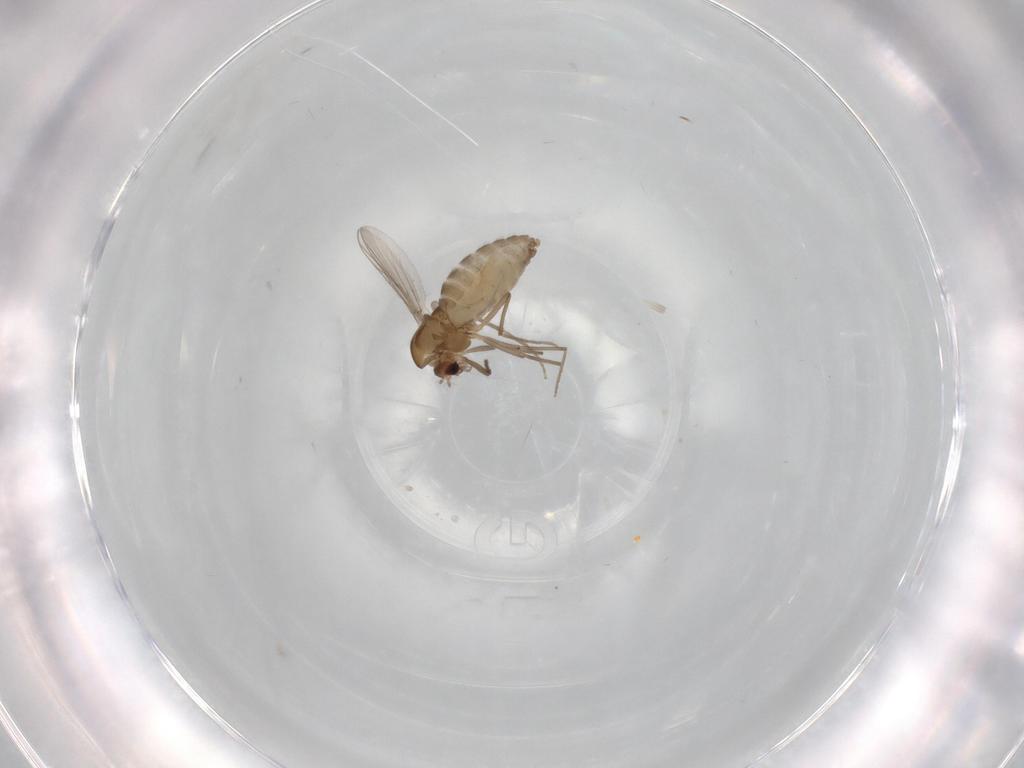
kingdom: Animalia
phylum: Arthropoda
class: Insecta
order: Diptera
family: Chironomidae
